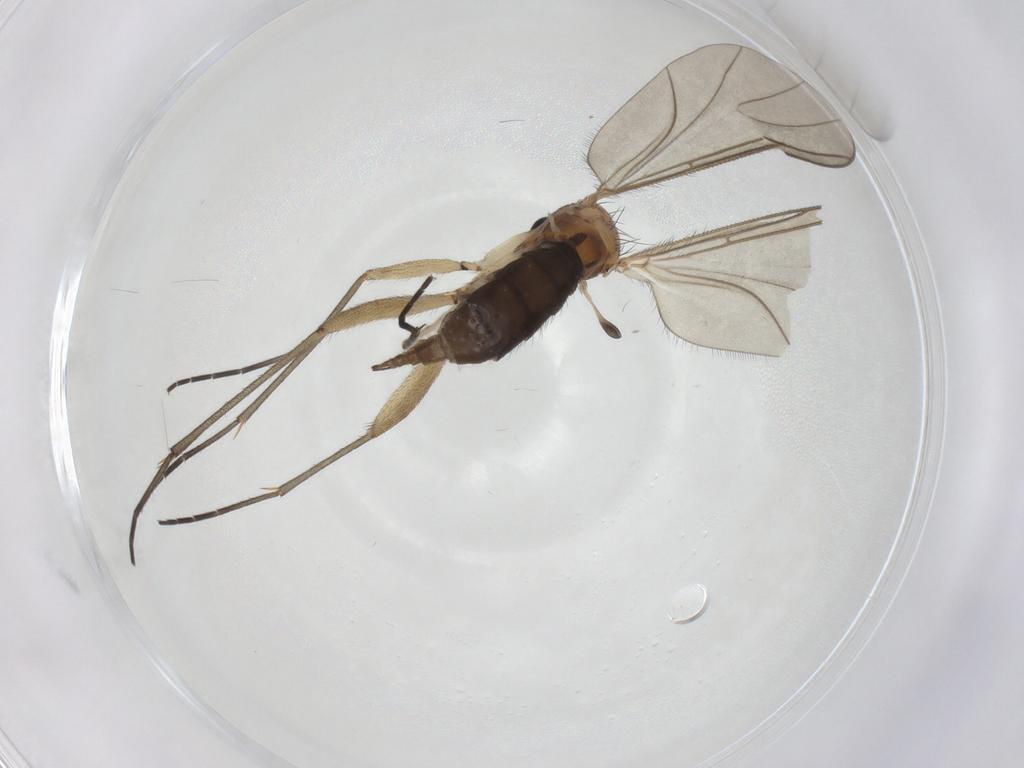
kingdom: Animalia
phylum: Arthropoda
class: Insecta
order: Diptera
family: Sciaridae
